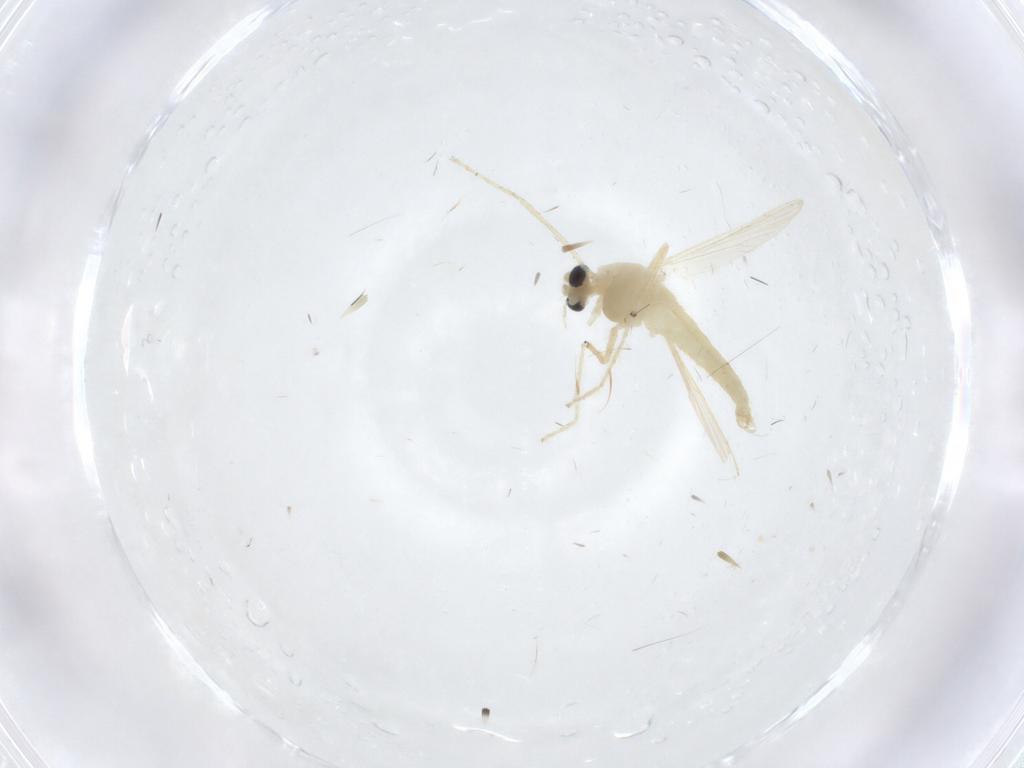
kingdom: Animalia
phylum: Arthropoda
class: Insecta
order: Diptera
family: Chironomidae
